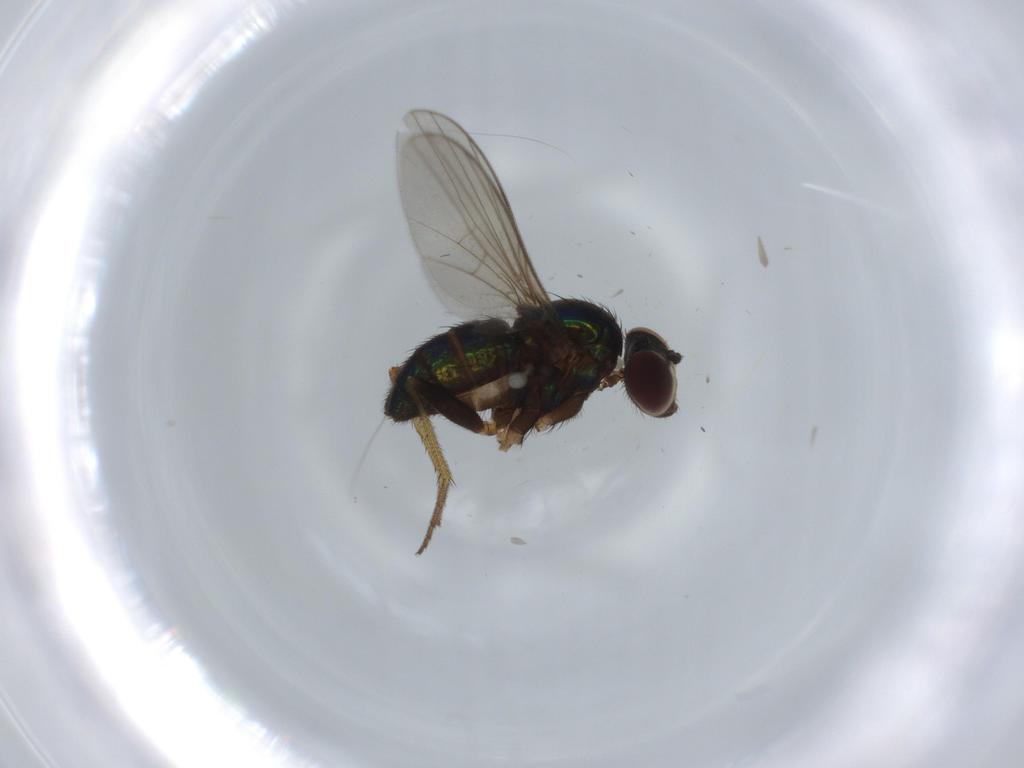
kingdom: Animalia
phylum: Arthropoda
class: Insecta
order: Diptera
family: Dolichopodidae
